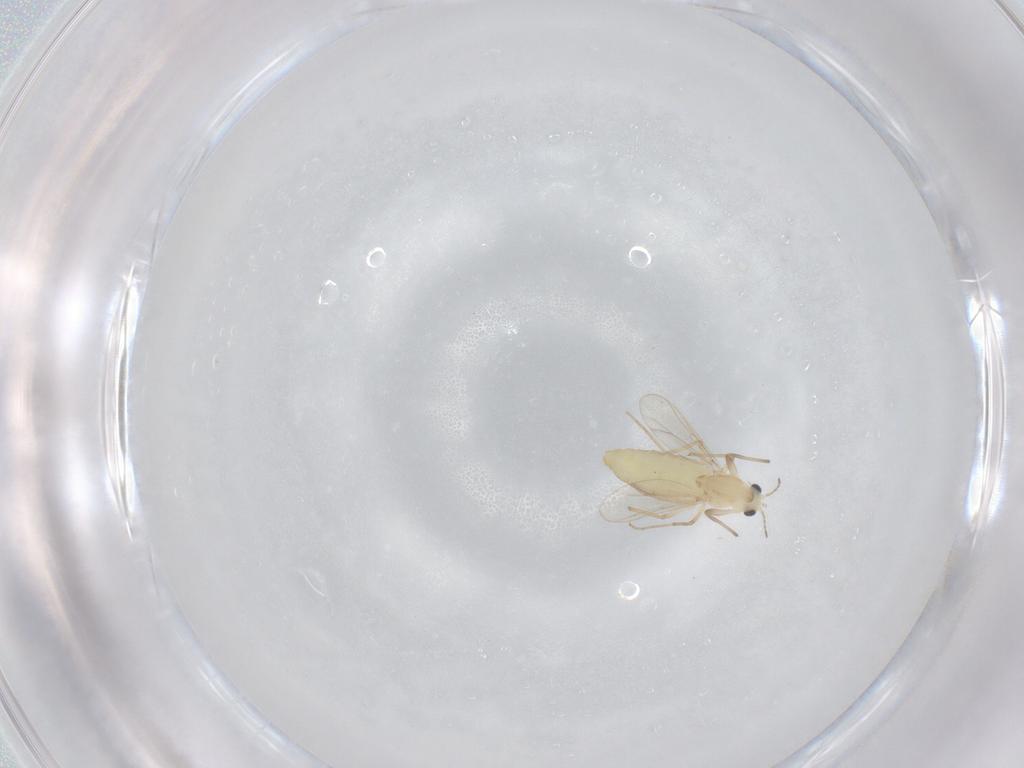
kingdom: Animalia
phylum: Arthropoda
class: Insecta
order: Diptera
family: Chironomidae
